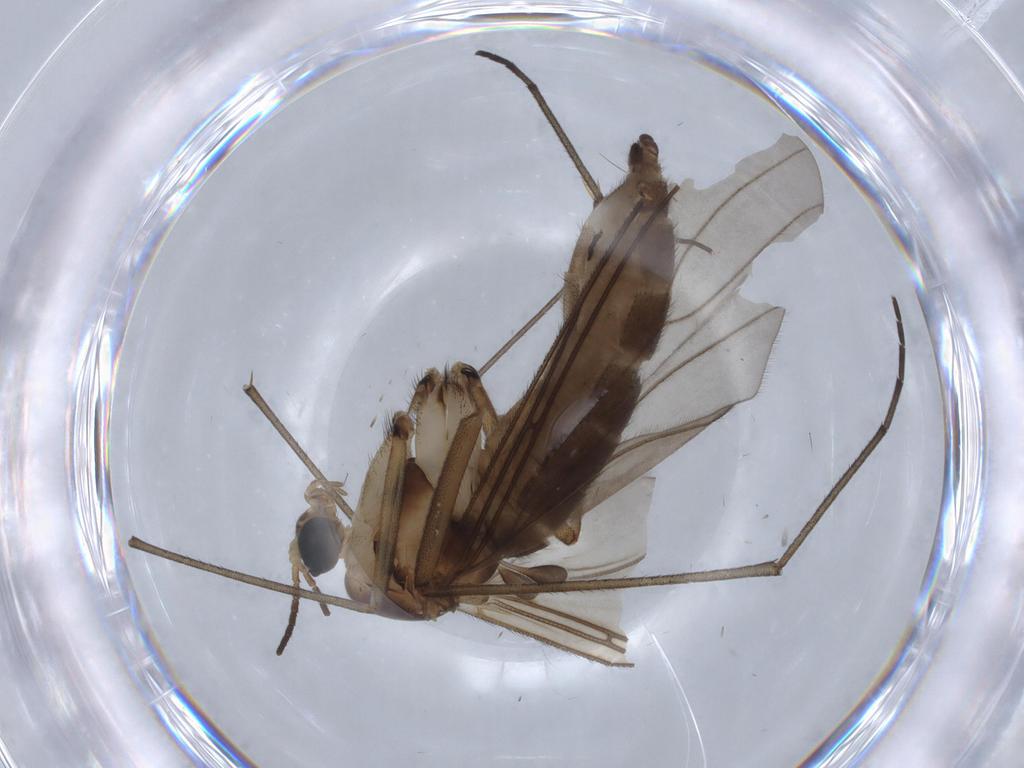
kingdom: Animalia
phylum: Arthropoda
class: Insecta
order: Diptera
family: Sciaridae
